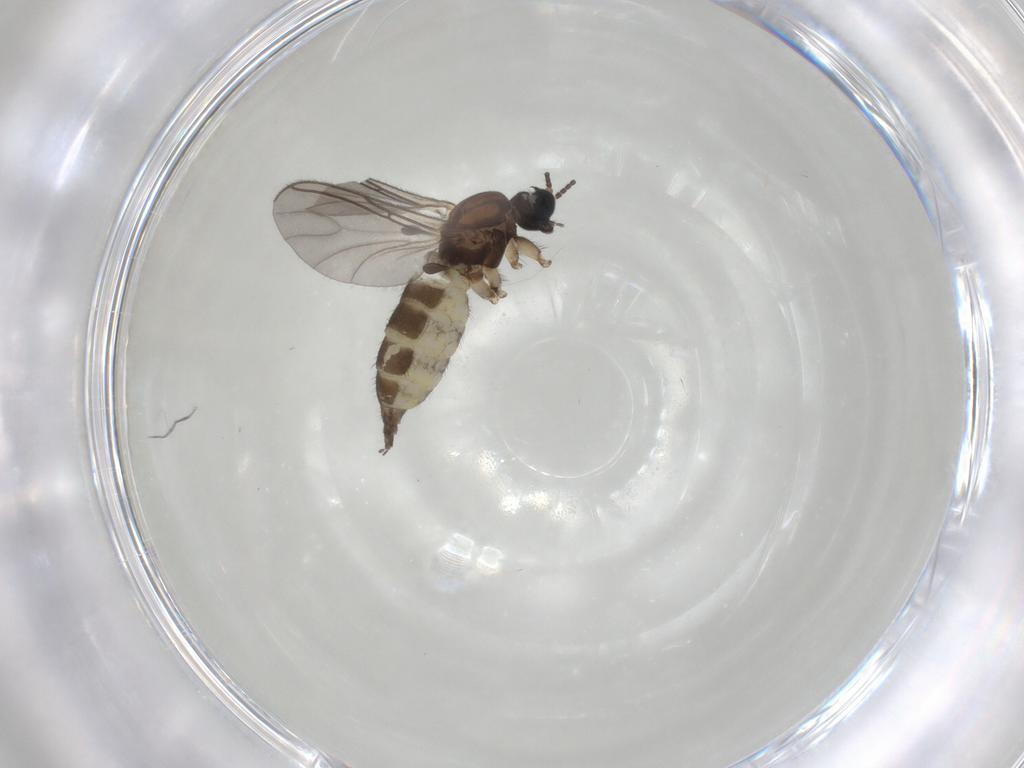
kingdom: Animalia
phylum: Arthropoda
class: Insecta
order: Diptera
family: Sciaridae
